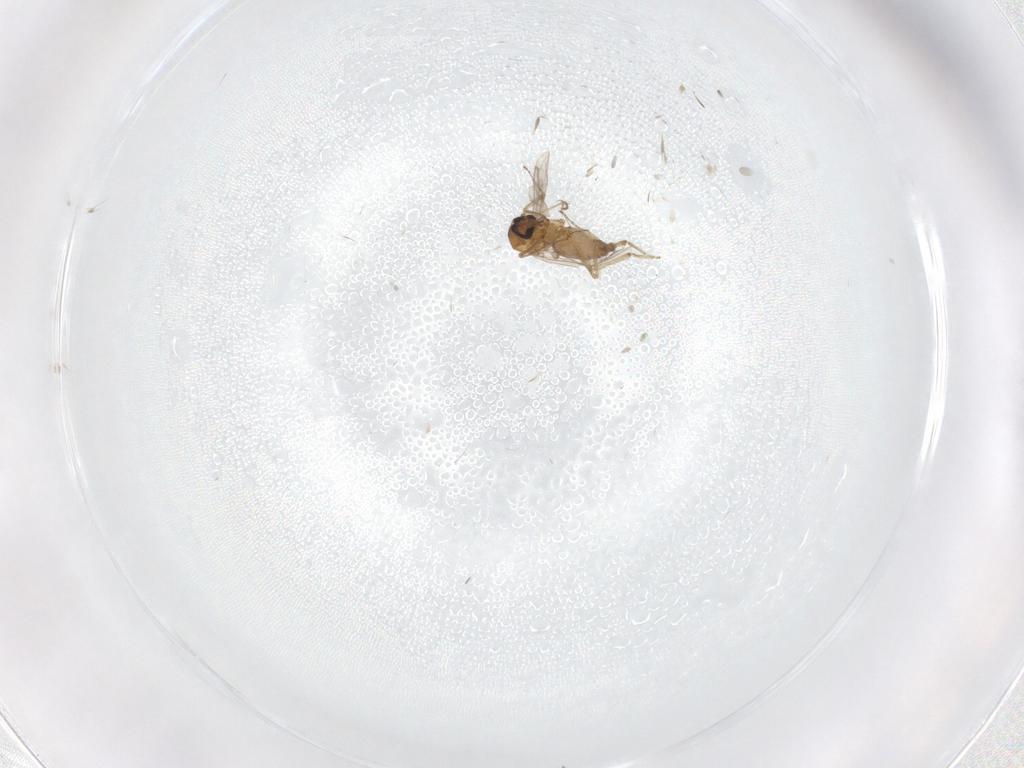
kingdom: Animalia
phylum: Arthropoda
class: Insecta
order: Diptera
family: Ceratopogonidae
